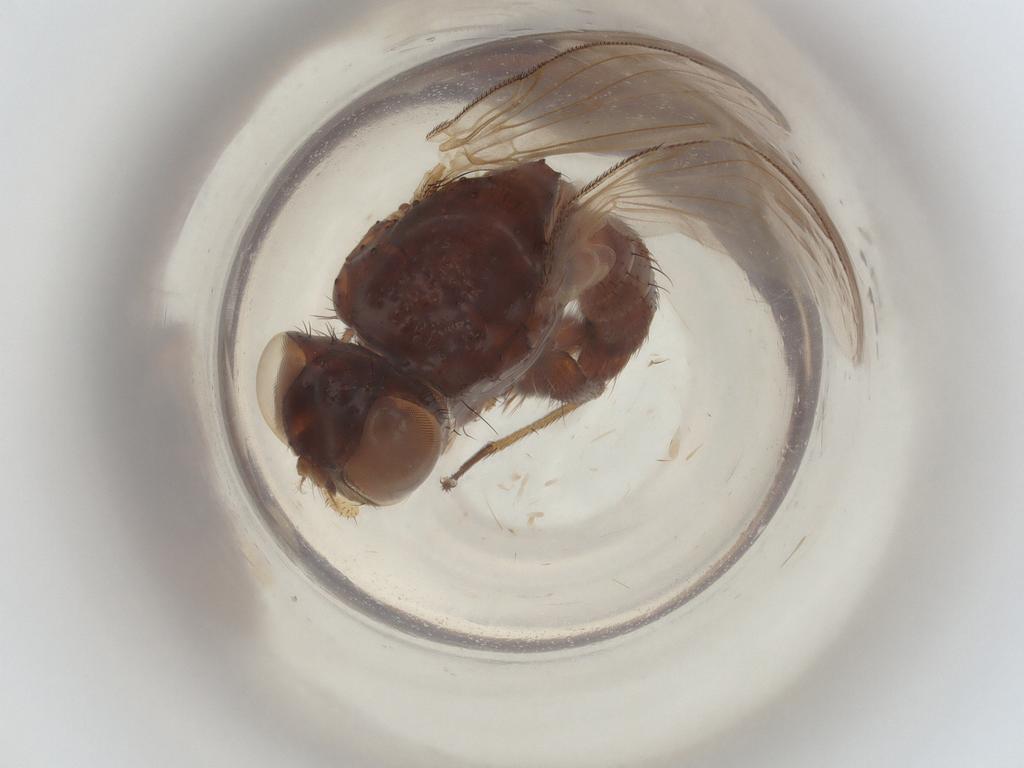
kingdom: Animalia
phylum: Arthropoda
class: Insecta
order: Diptera
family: Muscidae
